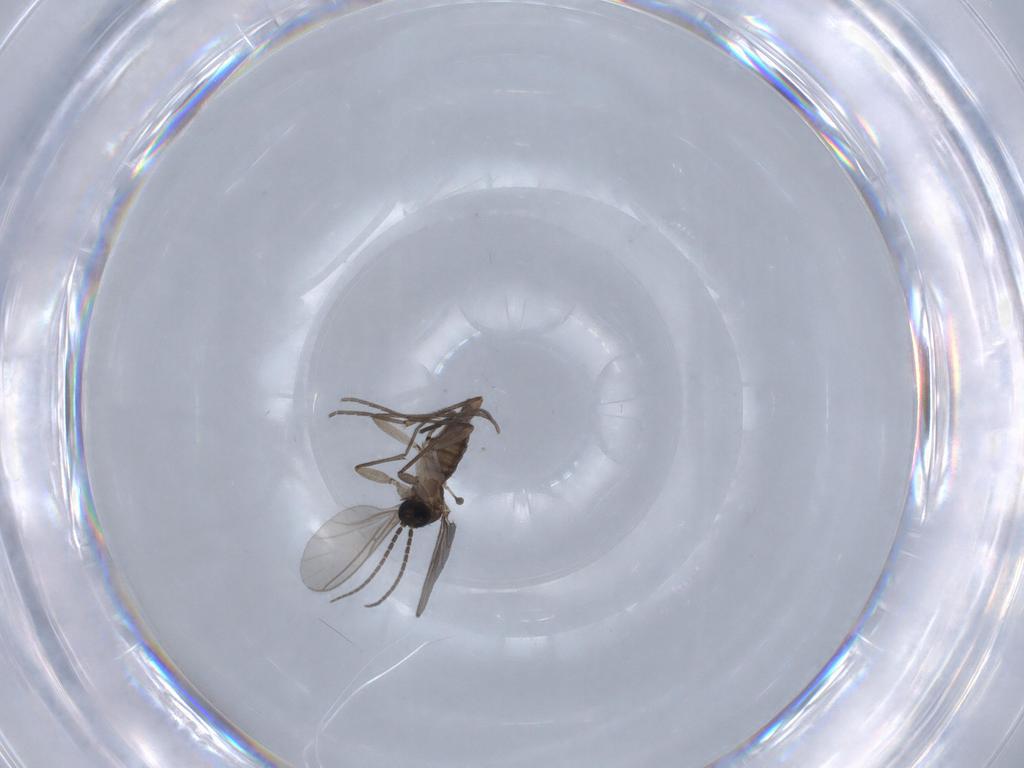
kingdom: Animalia
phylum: Arthropoda
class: Insecta
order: Diptera
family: Sciaridae
